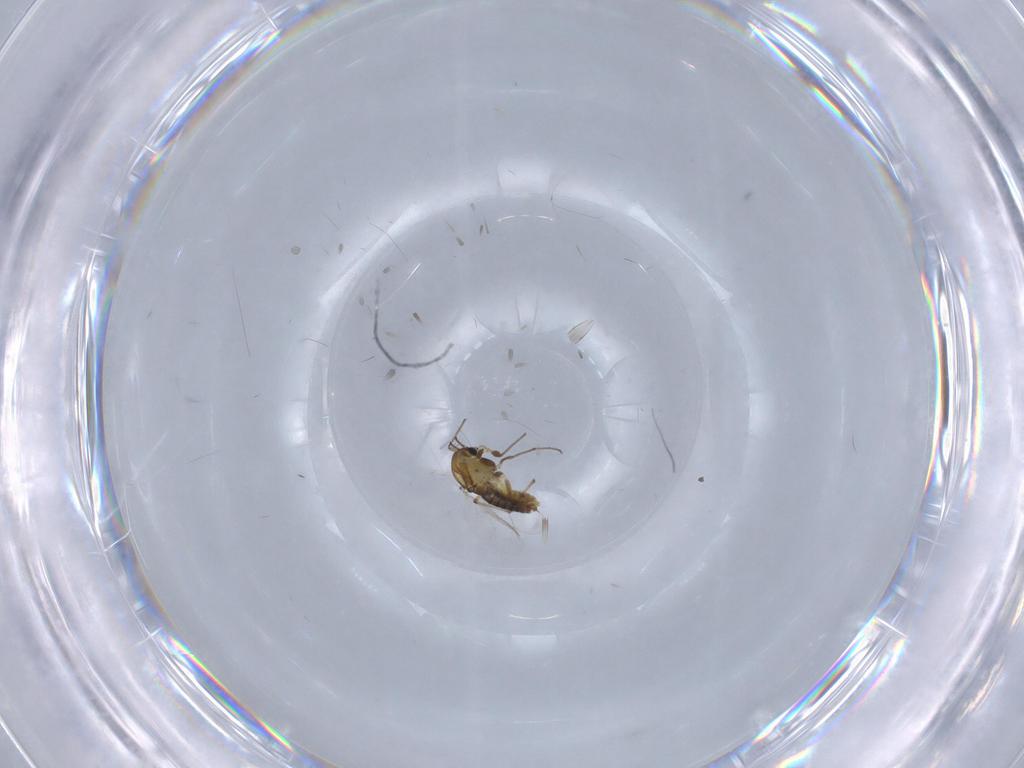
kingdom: Animalia
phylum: Arthropoda
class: Insecta
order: Diptera
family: Chironomidae
